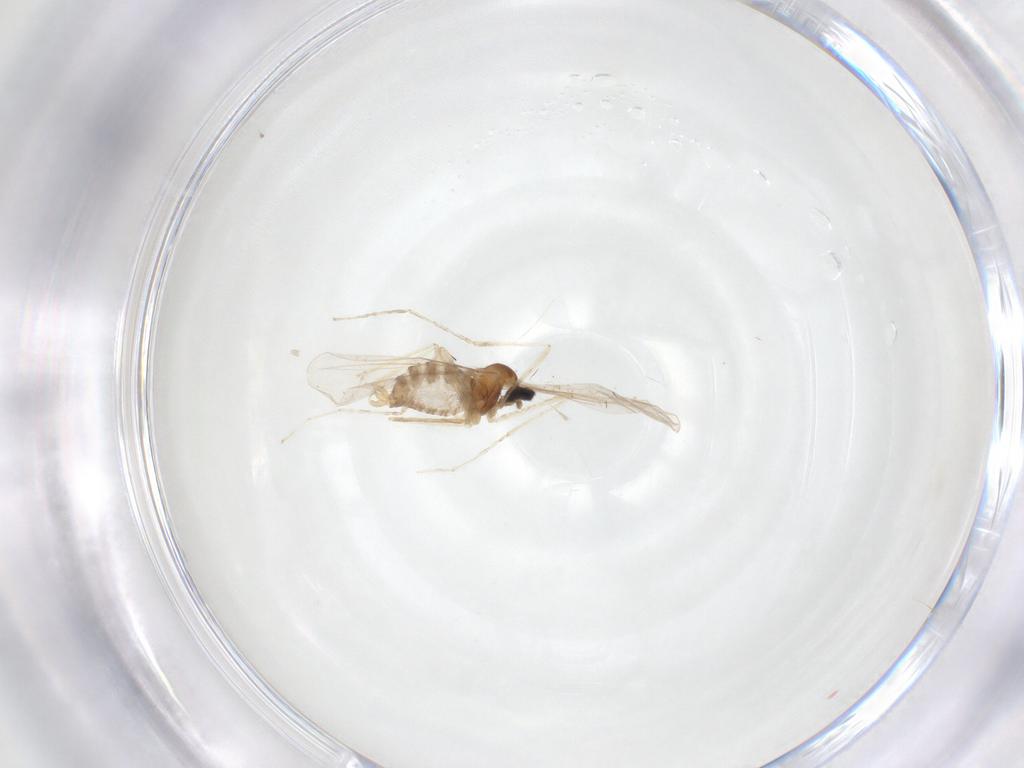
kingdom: Animalia
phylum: Arthropoda
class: Insecta
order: Diptera
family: Cecidomyiidae
